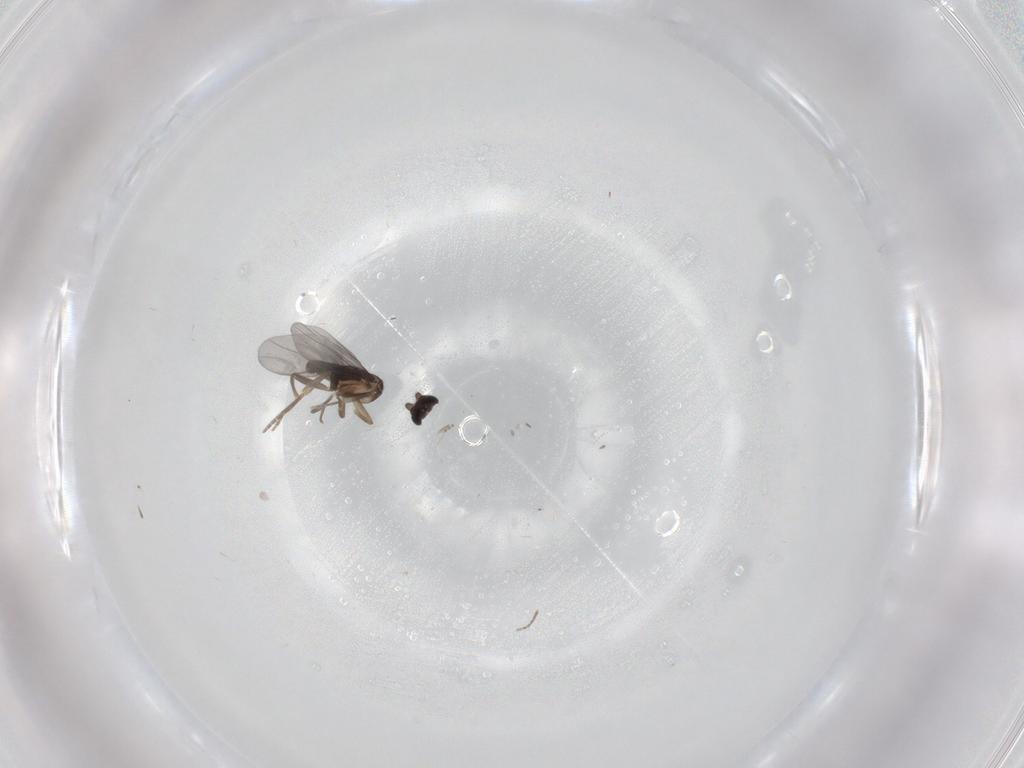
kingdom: Animalia
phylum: Arthropoda
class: Insecta
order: Diptera
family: Cecidomyiidae
